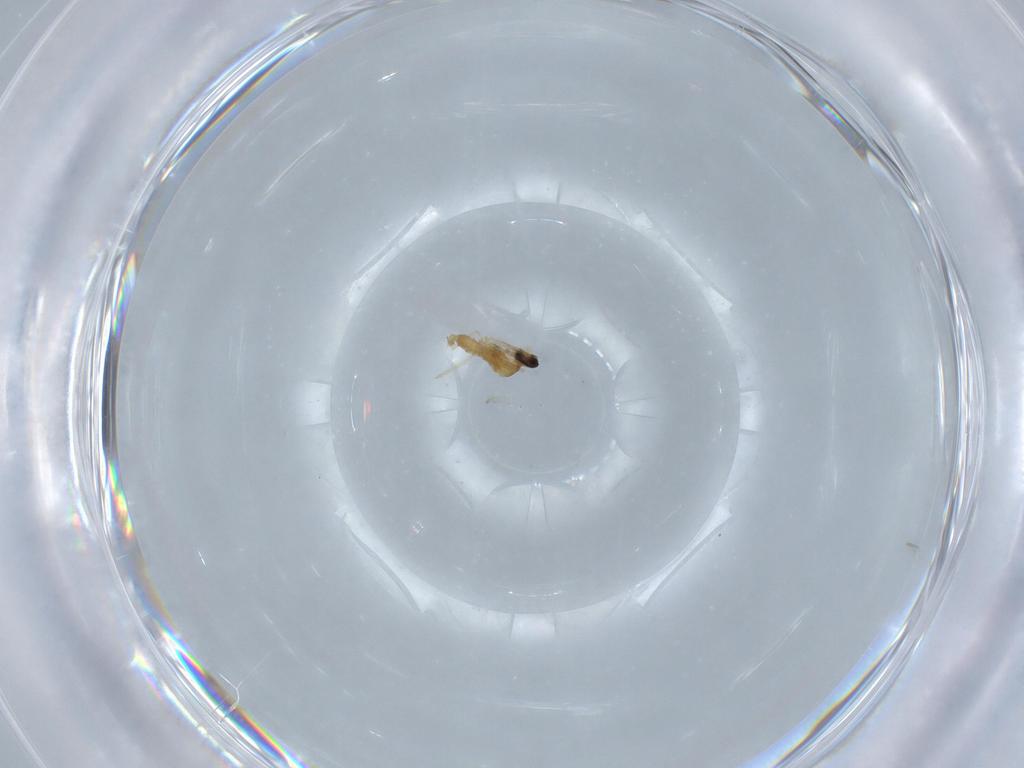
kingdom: Animalia
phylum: Arthropoda
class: Insecta
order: Diptera
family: Cecidomyiidae
